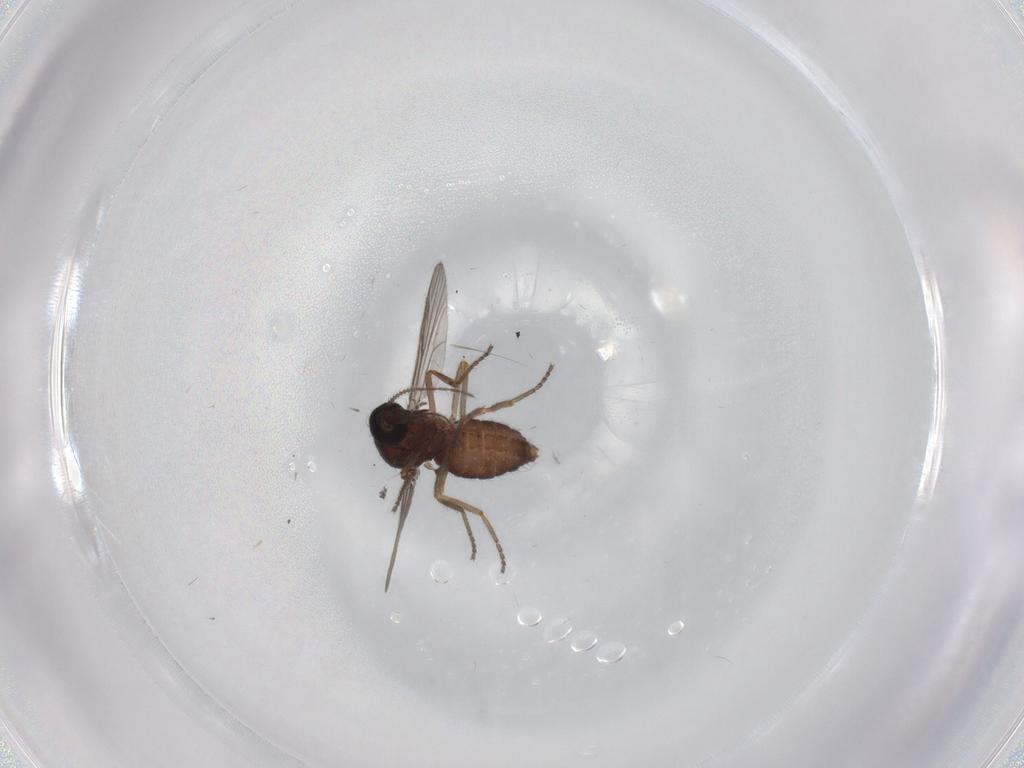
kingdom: Animalia
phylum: Arthropoda
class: Insecta
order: Diptera
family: Ceratopogonidae
